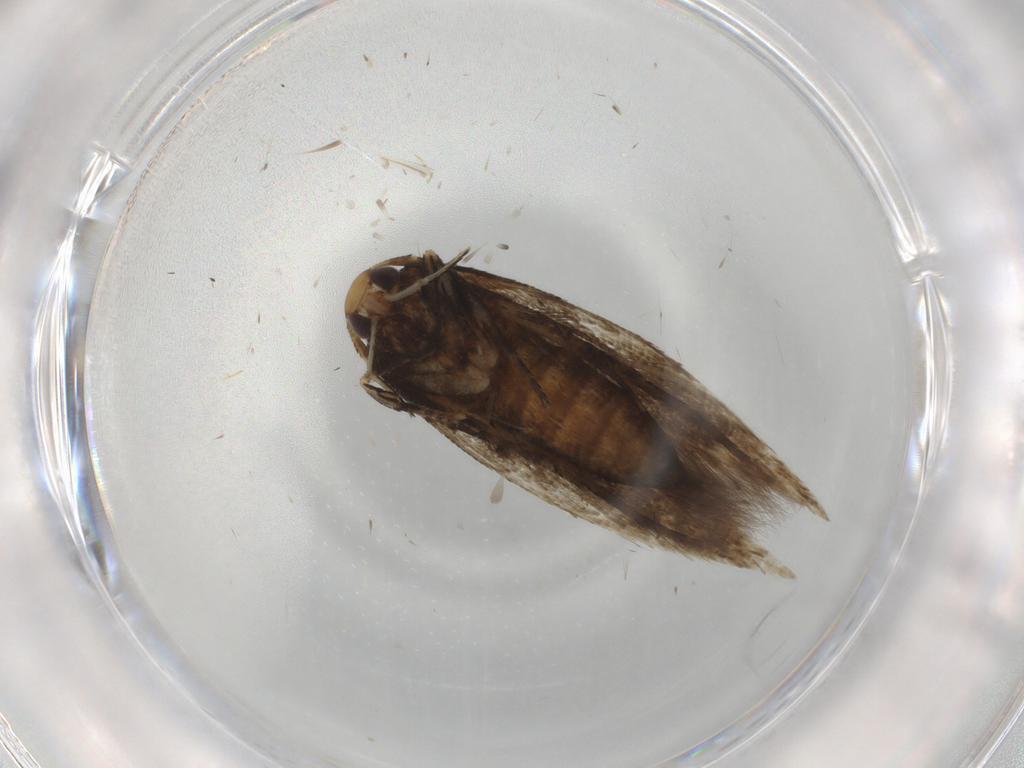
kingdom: Animalia
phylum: Arthropoda
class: Insecta
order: Lepidoptera
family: Cosmopterigidae
